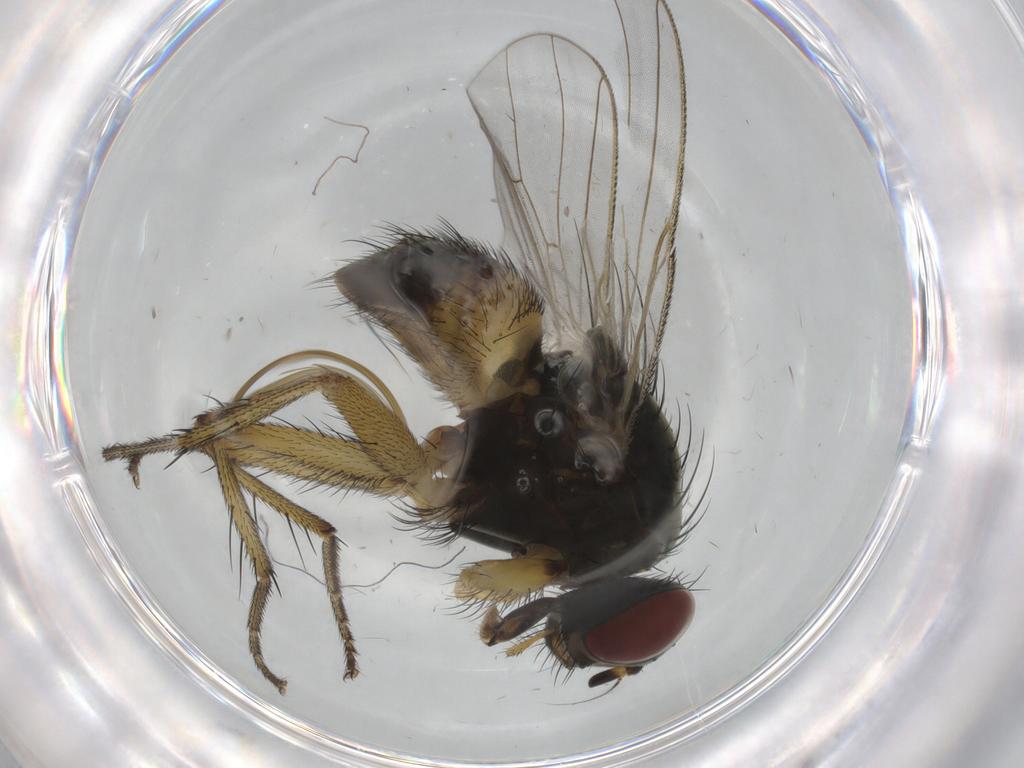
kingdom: Animalia
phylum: Arthropoda
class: Insecta
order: Diptera
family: Muscidae
